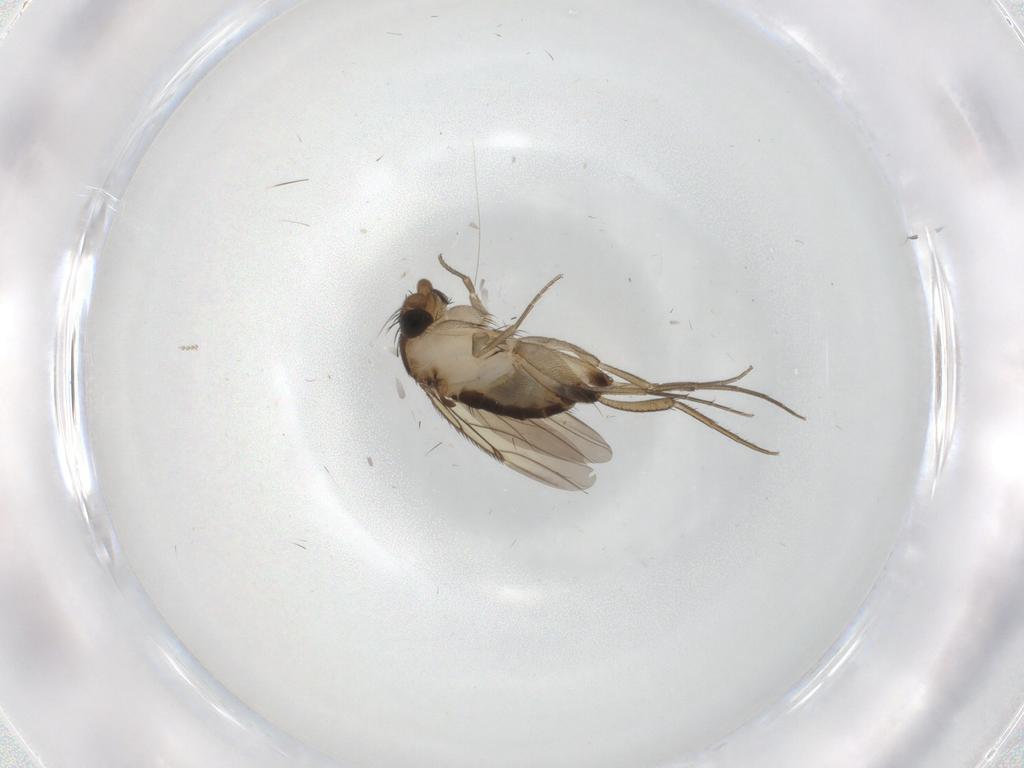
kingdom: Animalia
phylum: Arthropoda
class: Insecta
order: Diptera
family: Phoridae
